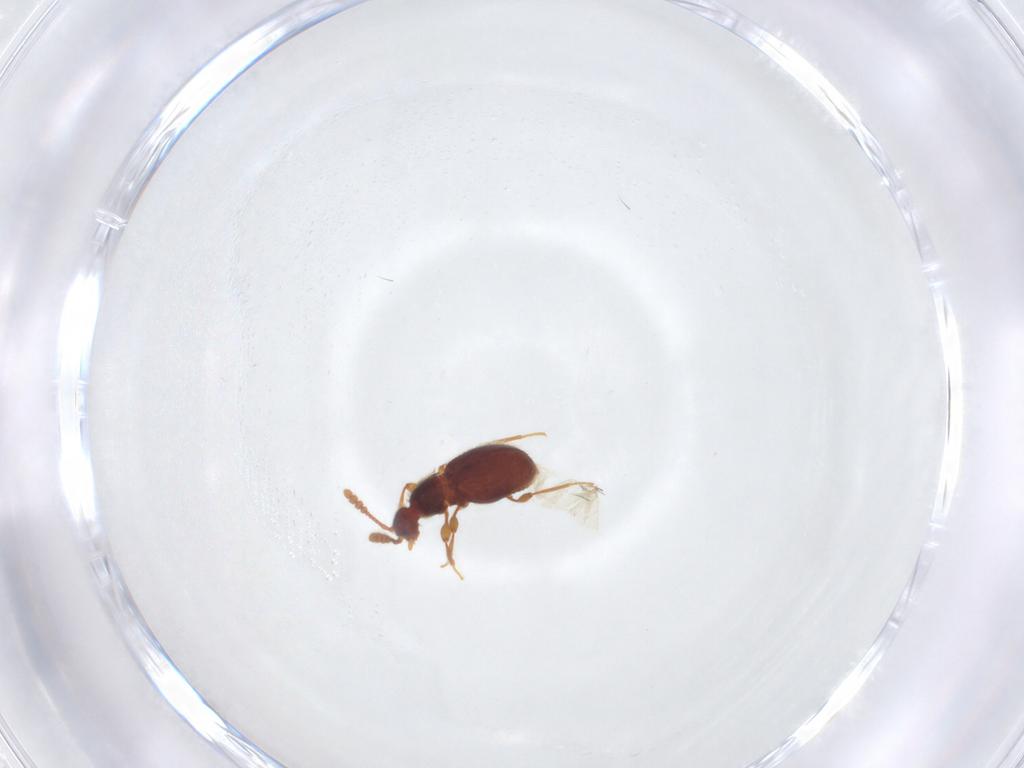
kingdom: Animalia
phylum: Arthropoda
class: Insecta
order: Coleoptera
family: Staphylinidae
